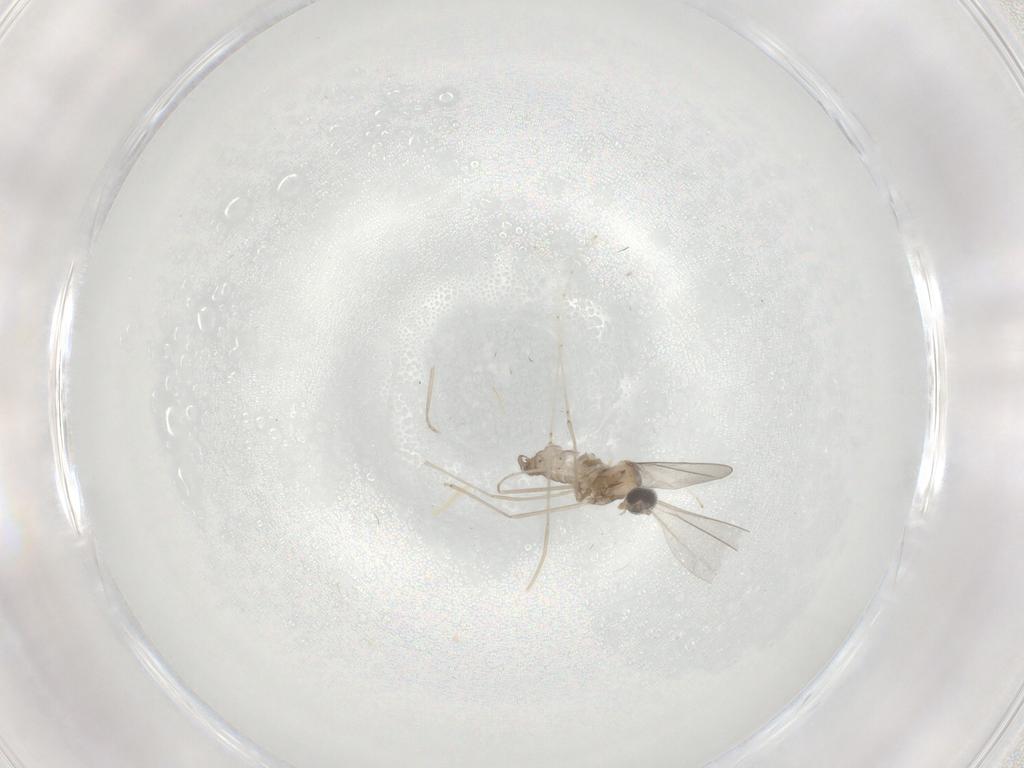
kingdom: Animalia
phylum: Arthropoda
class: Insecta
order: Diptera
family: Cecidomyiidae
